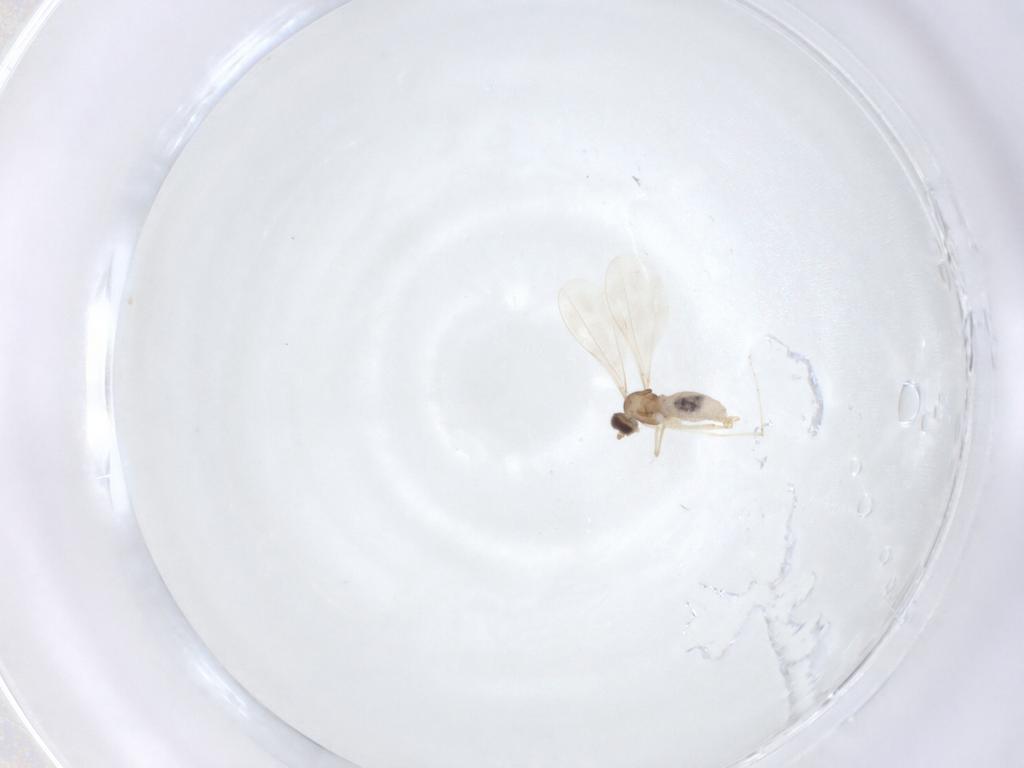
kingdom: Animalia
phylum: Arthropoda
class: Insecta
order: Diptera
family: Cecidomyiidae
